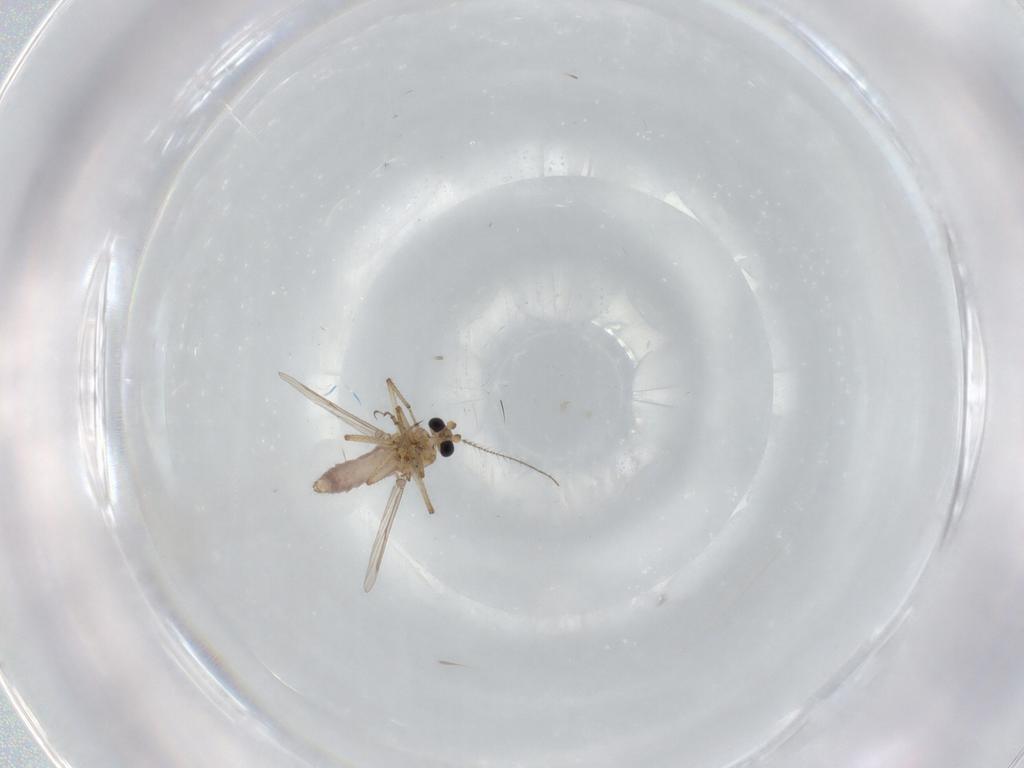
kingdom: Animalia
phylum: Arthropoda
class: Insecta
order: Diptera
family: Ceratopogonidae
